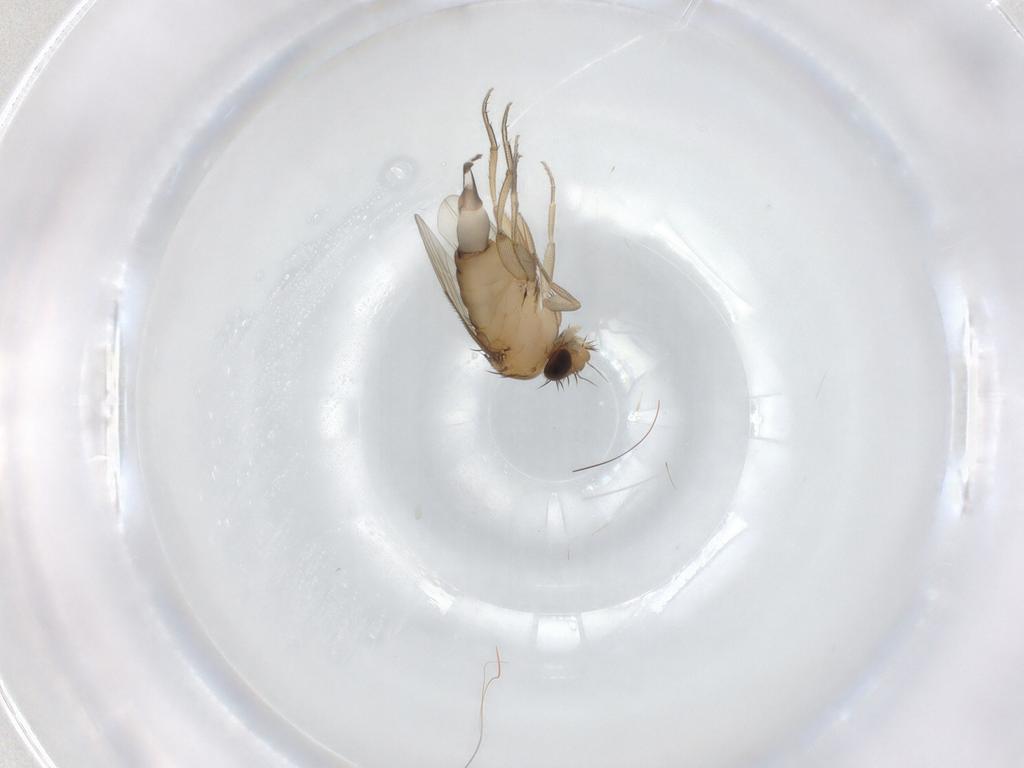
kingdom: Animalia
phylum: Arthropoda
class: Insecta
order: Diptera
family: Phoridae
